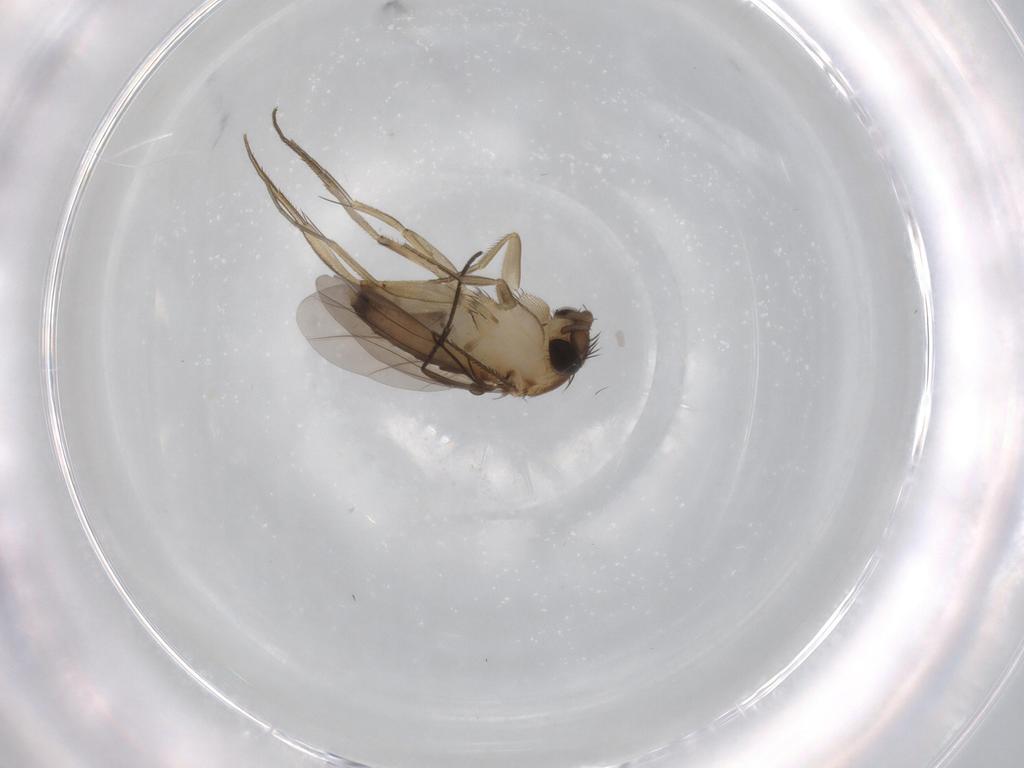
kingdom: Animalia
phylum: Arthropoda
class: Insecta
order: Diptera
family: Phoridae
